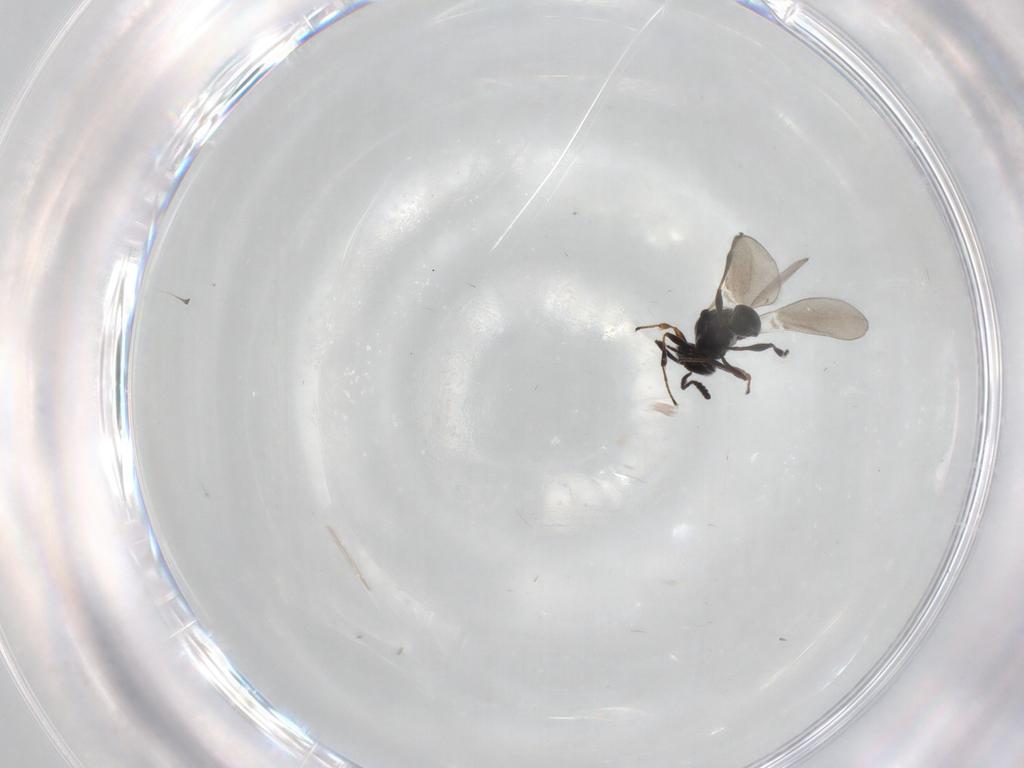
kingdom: Animalia
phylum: Arthropoda
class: Insecta
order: Hymenoptera
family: Platygastridae
